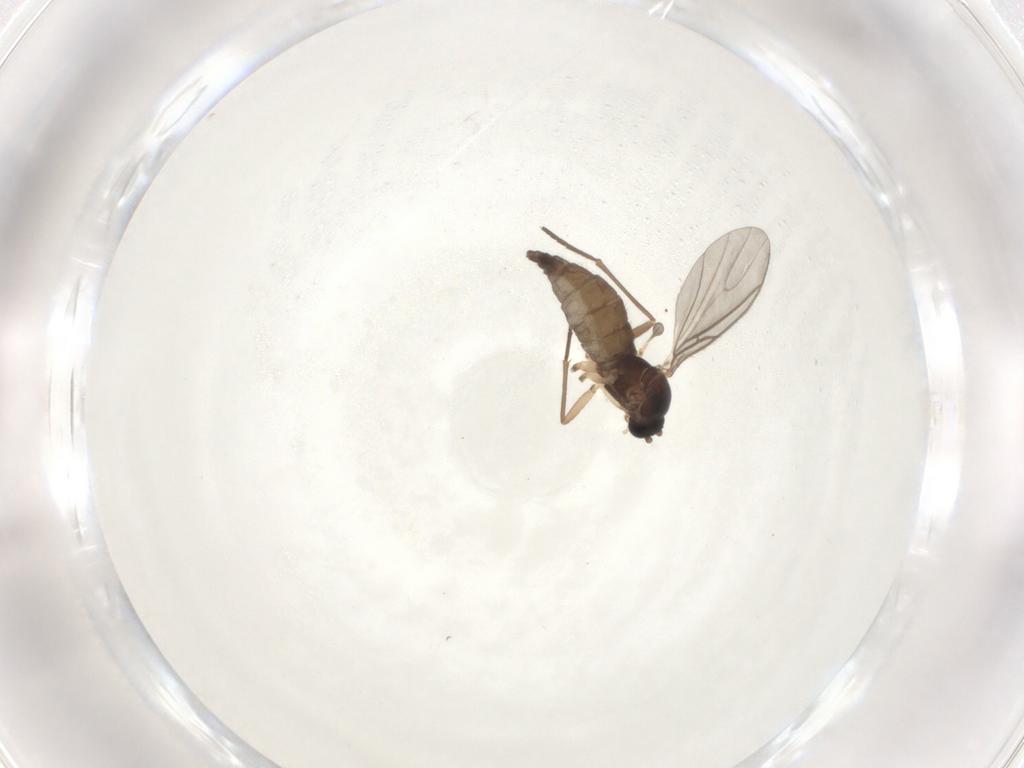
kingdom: Animalia
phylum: Arthropoda
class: Insecta
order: Diptera
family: Sciaridae
